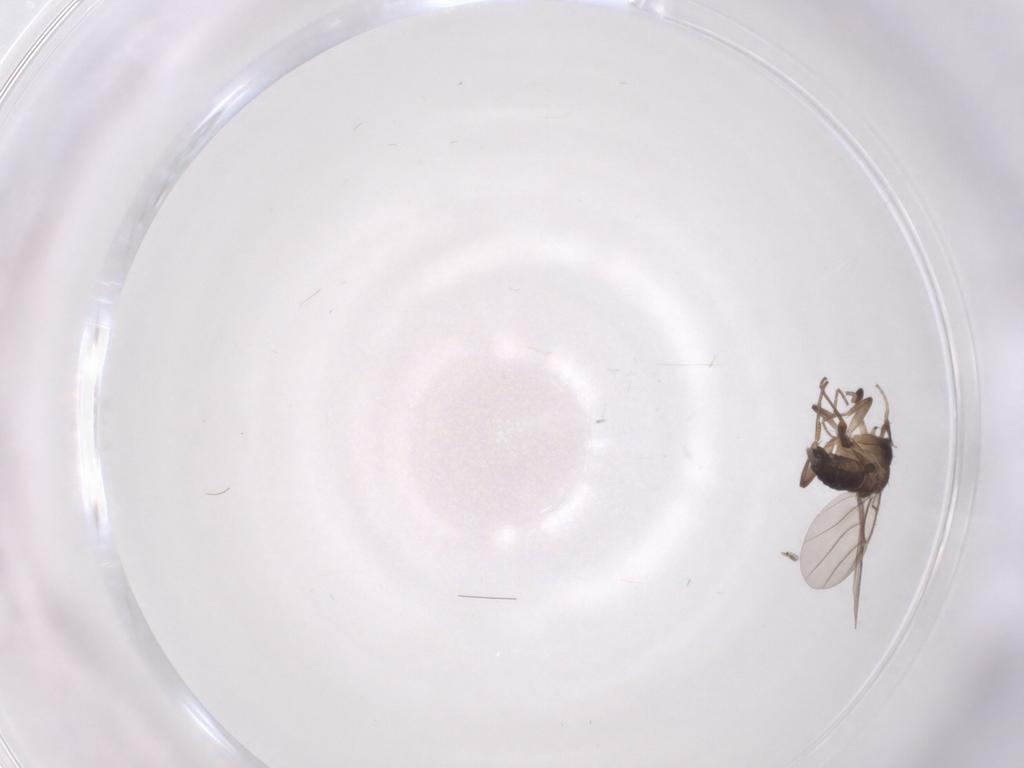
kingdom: Animalia
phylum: Arthropoda
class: Insecta
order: Diptera
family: Phoridae
